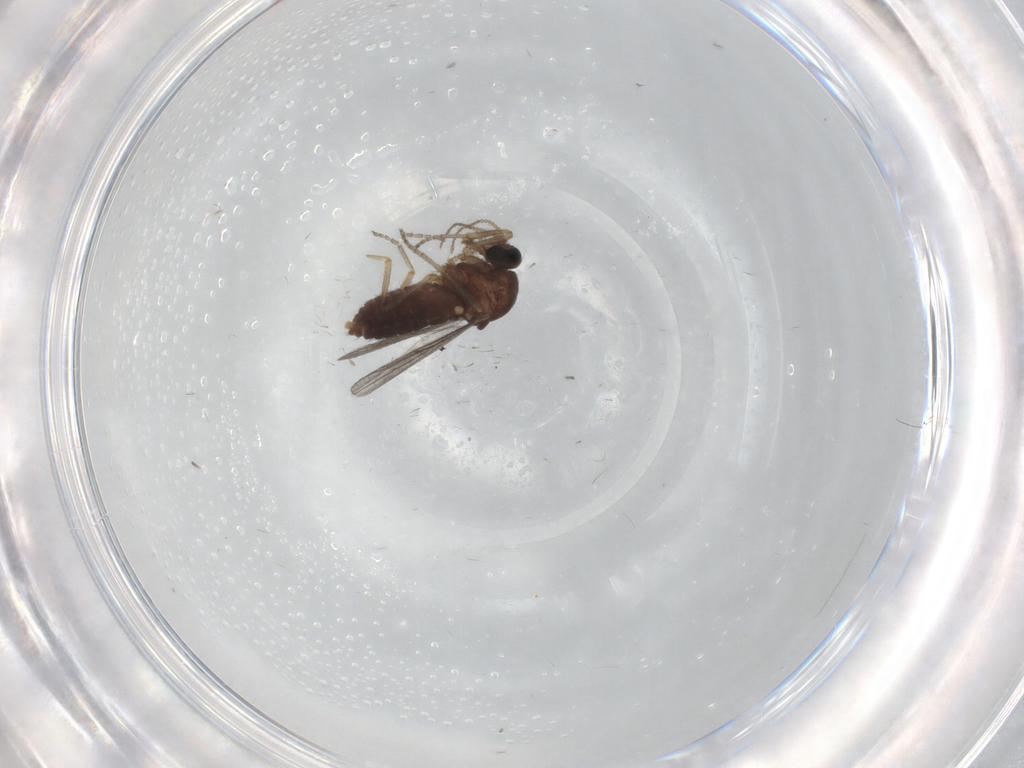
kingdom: Animalia
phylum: Arthropoda
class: Insecta
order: Diptera
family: Ceratopogonidae
